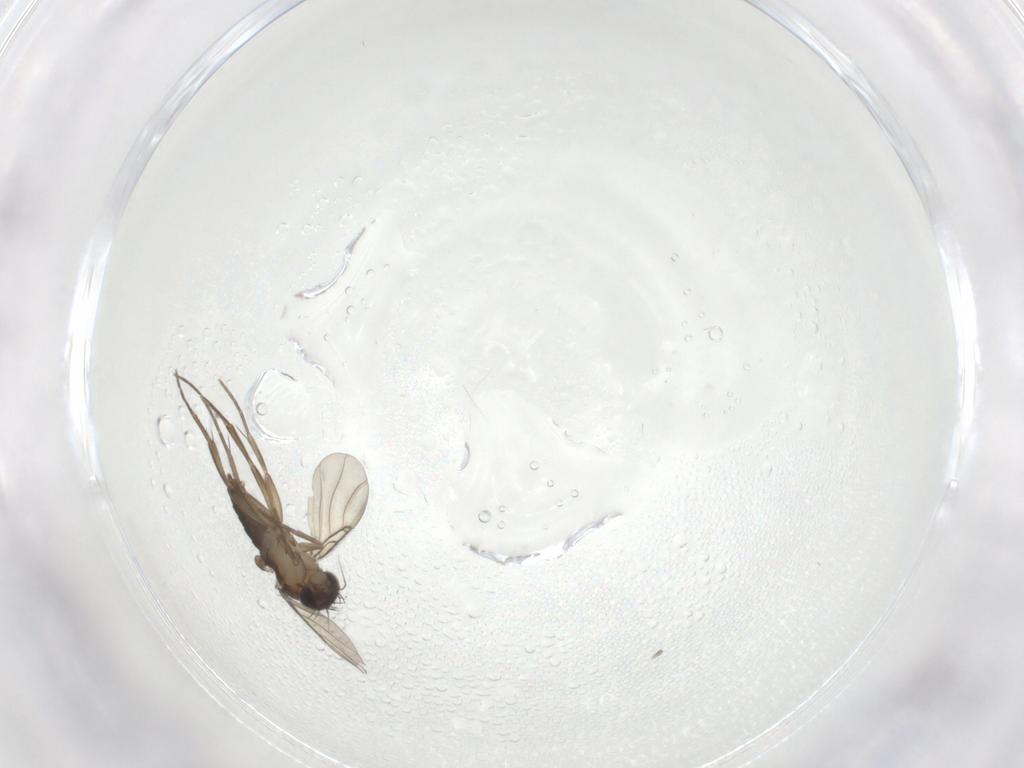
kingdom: Animalia
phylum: Arthropoda
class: Insecta
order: Diptera
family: Phoridae
